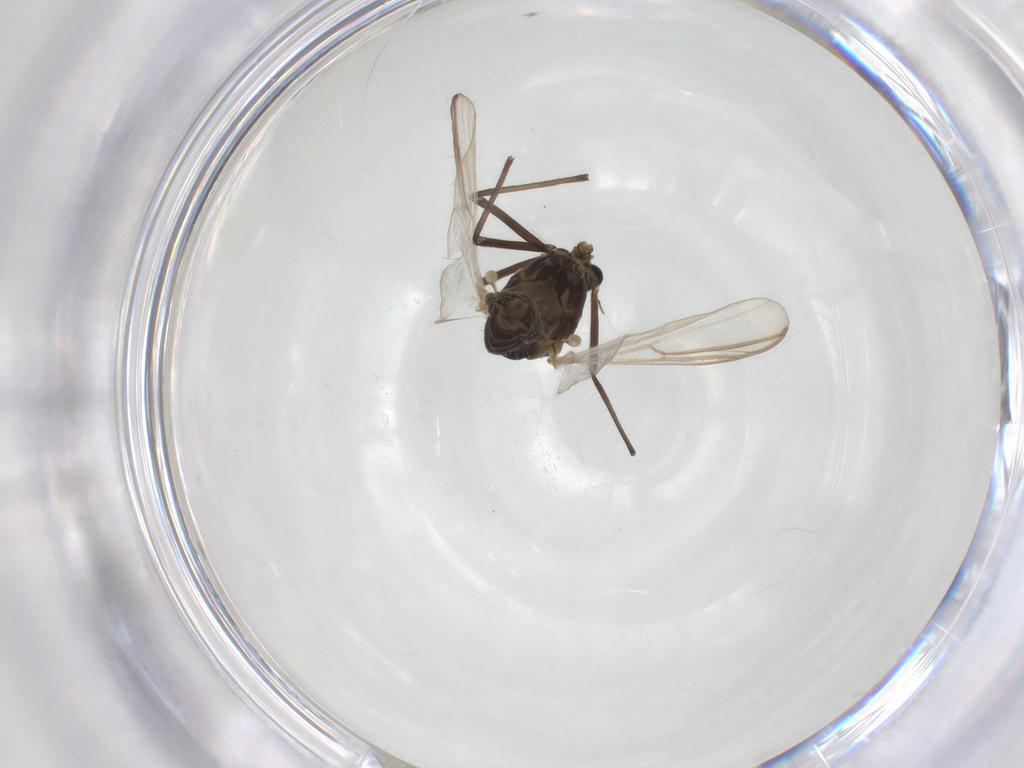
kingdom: Animalia
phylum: Arthropoda
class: Insecta
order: Diptera
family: Chironomidae
